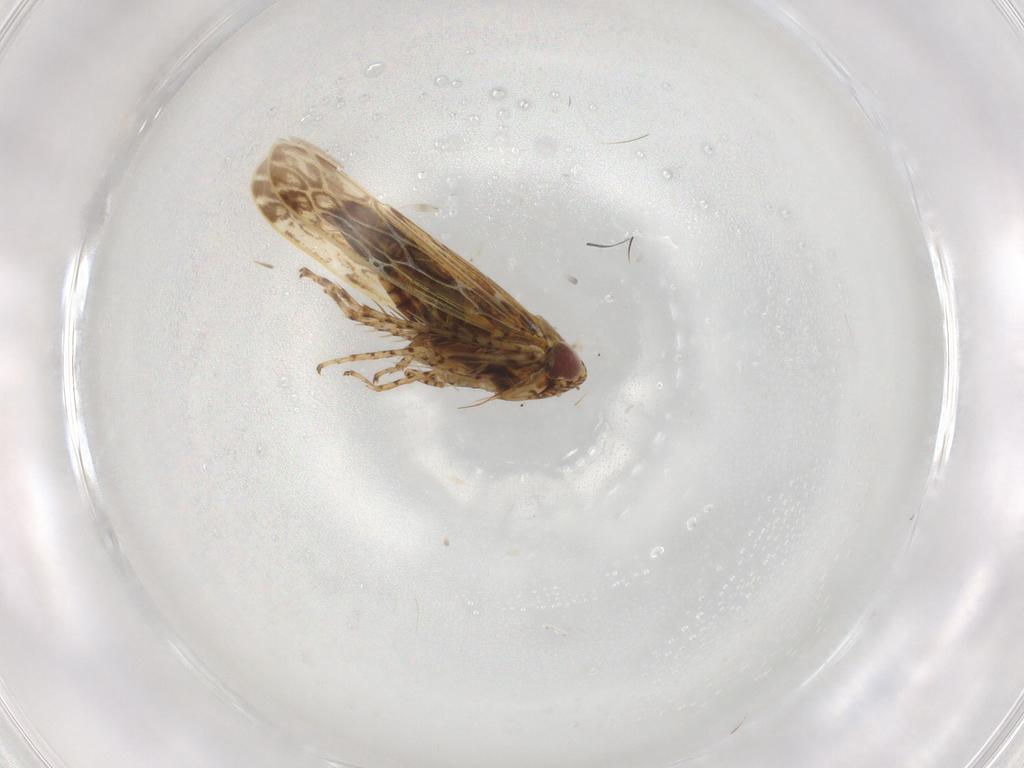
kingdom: Animalia
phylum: Arthropoda
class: Insecta
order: Hemiptera
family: Cicadellidae
